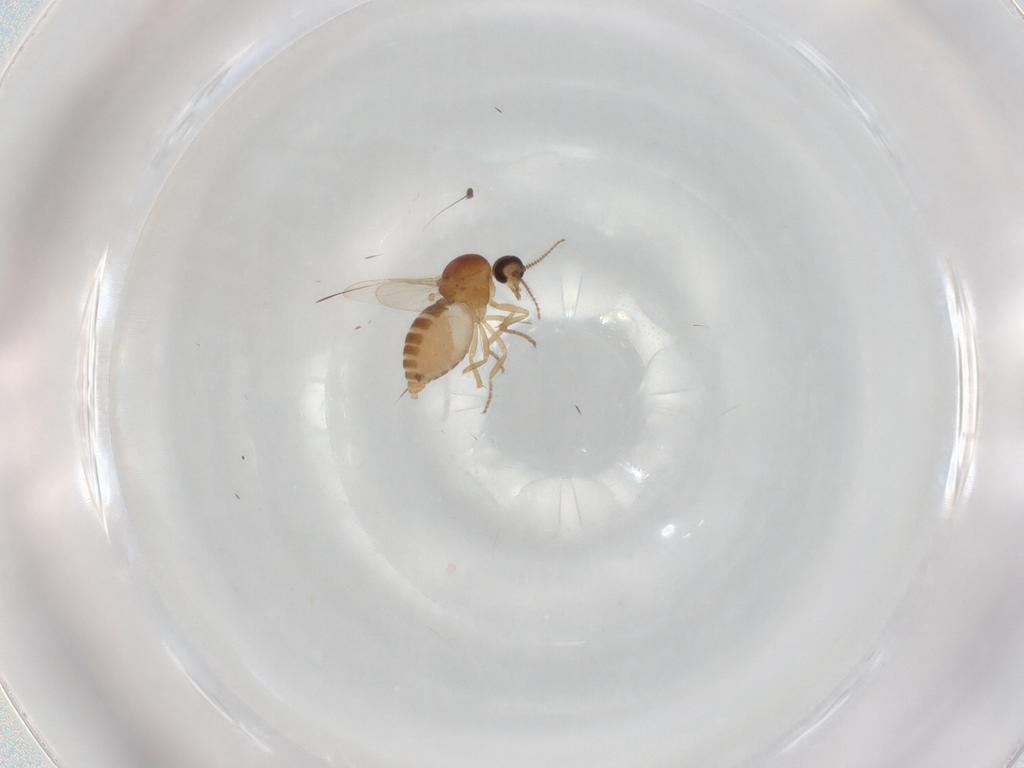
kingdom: Animalia
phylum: Arthropoda
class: Insecta
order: Diptera
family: Ceratopogonidae
